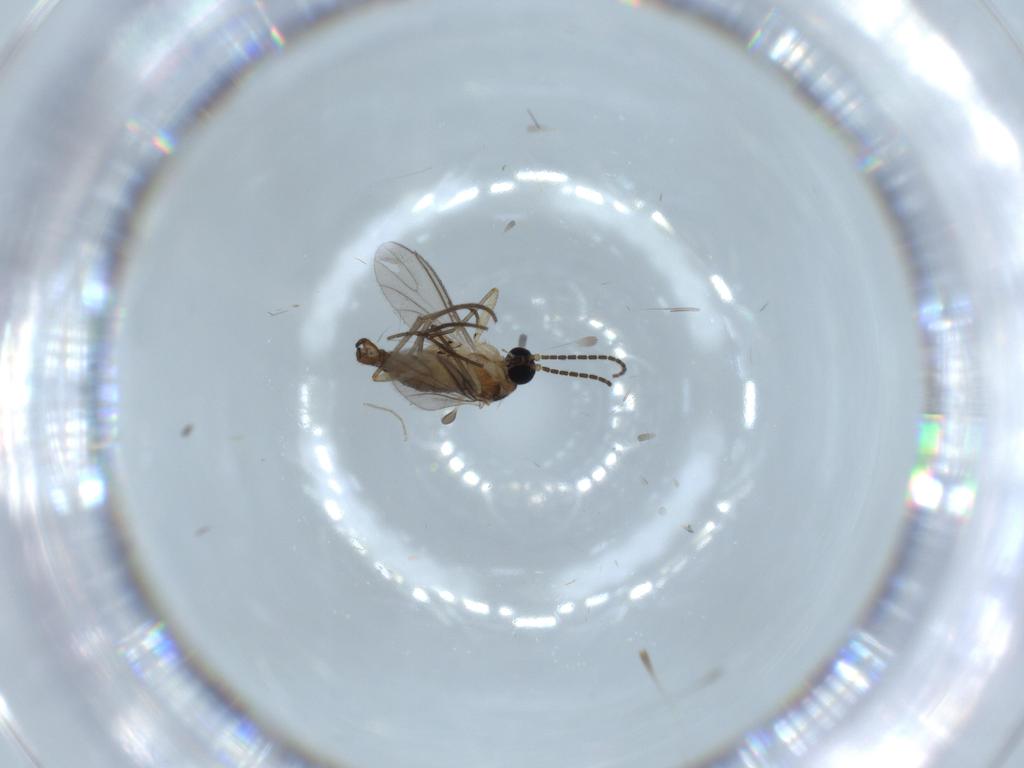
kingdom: Animalia
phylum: Arthropoda
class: Insecta
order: Diptera
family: Sciaridae
